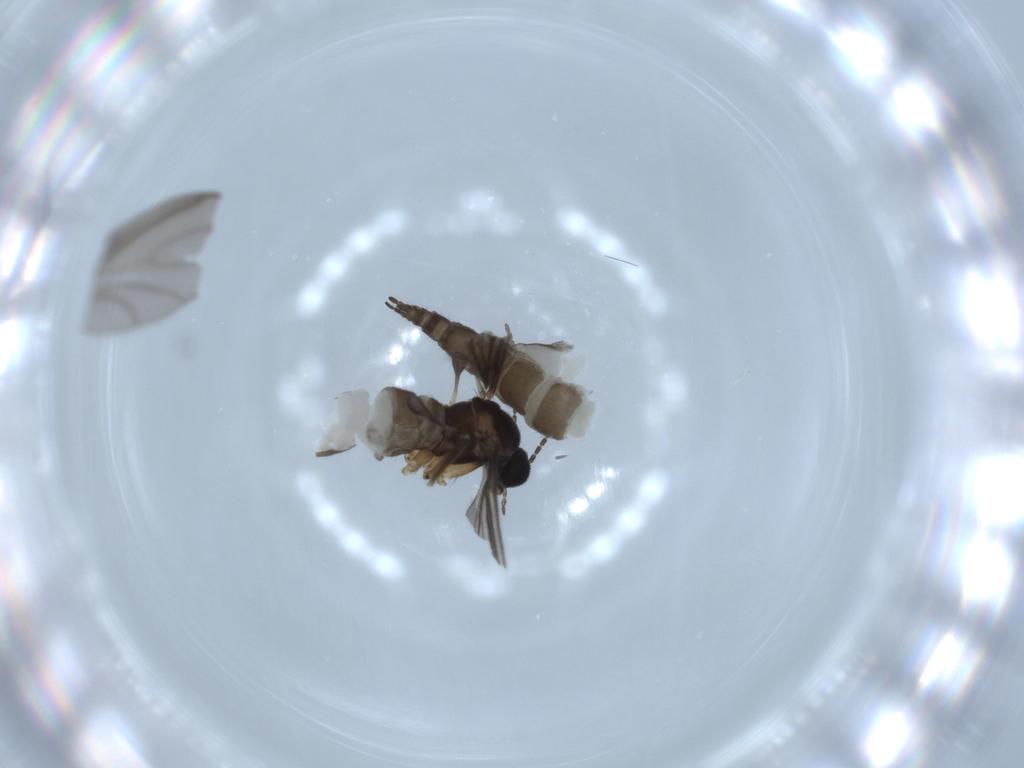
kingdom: Animalia
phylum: Arthropoda
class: Insecta
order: Diptera
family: Sciaridae
